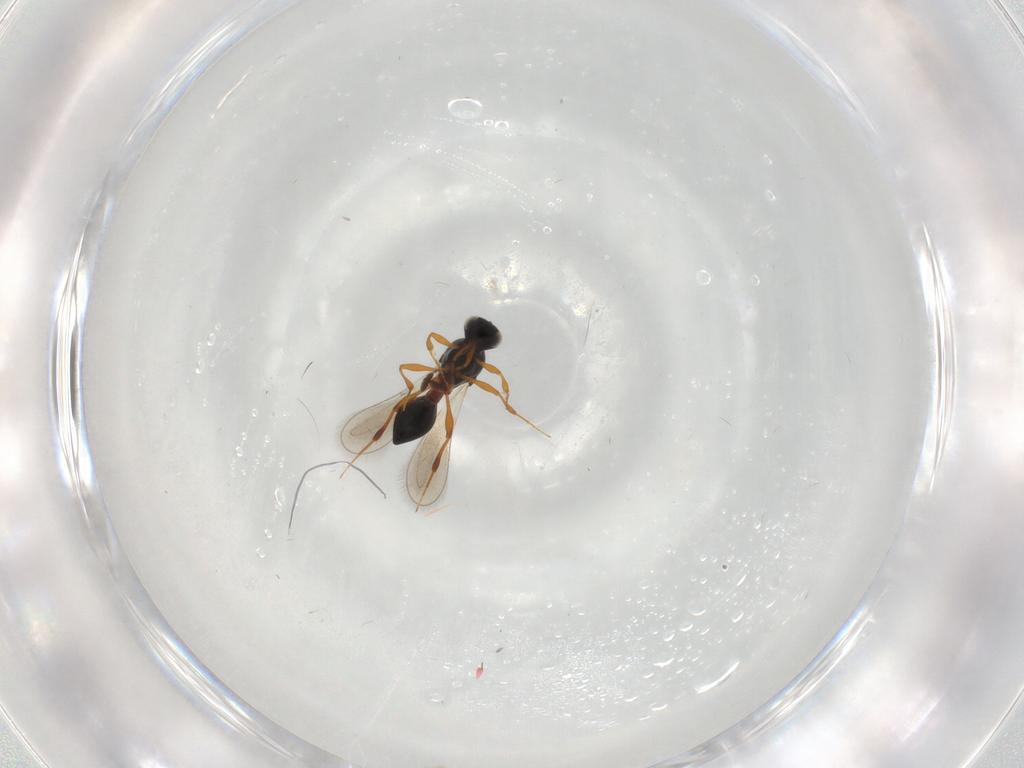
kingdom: Animalia
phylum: Arthropoda
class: Insecta
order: Hymenoptera
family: Platygastridae
